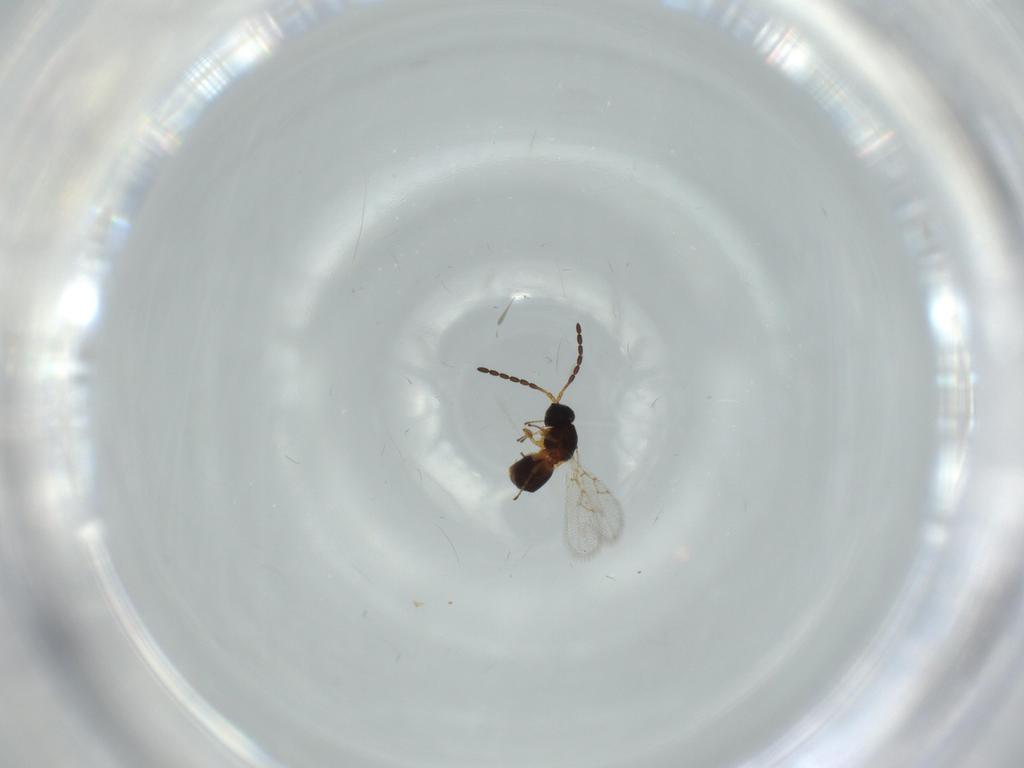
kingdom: Animalia
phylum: Arthropoda
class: Insecta
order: Hymenoptera
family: Figitidae
